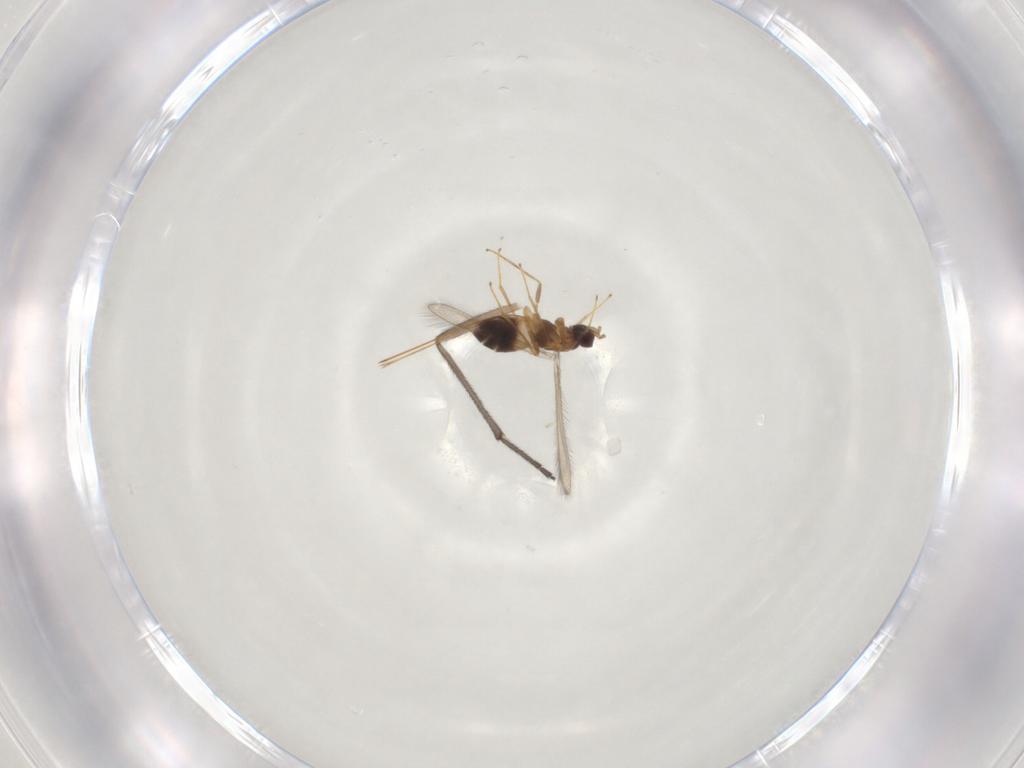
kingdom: Animalia
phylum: Arthropoda
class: Insecta
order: Diptera
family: Sciaridae
